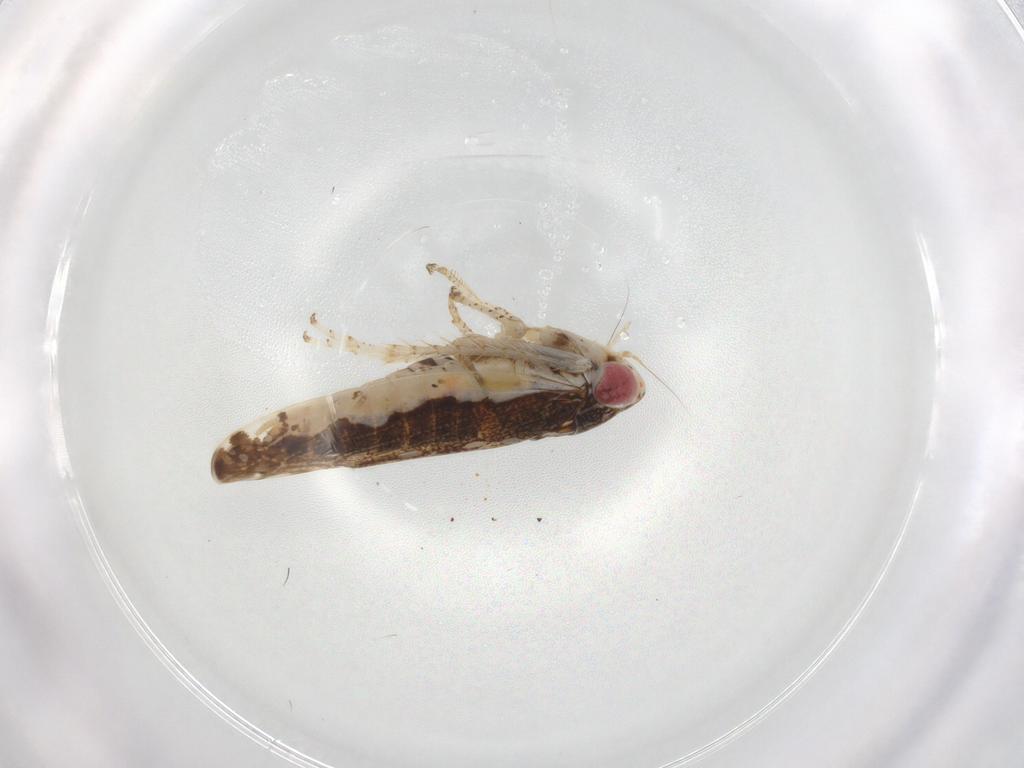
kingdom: Animalia
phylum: Arthropoda
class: Insecta
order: Hemiptera
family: Cicadellidae
